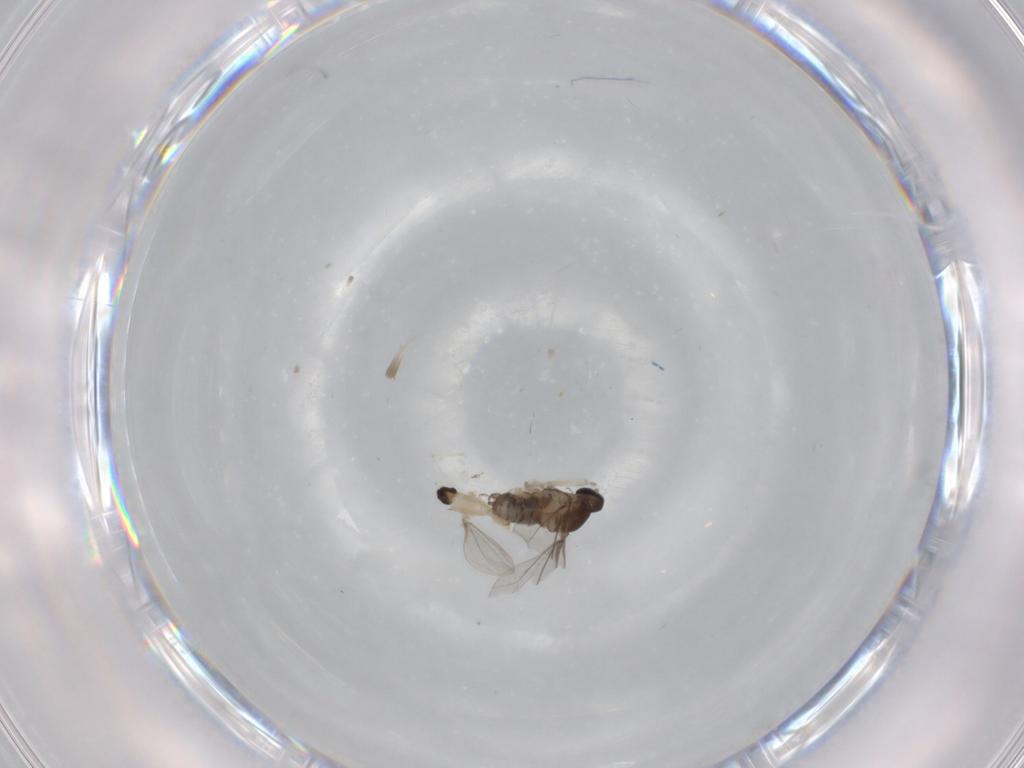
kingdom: Animalia
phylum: Arthropoda
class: Insecta
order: Diptera
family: Cecidomyiidae
